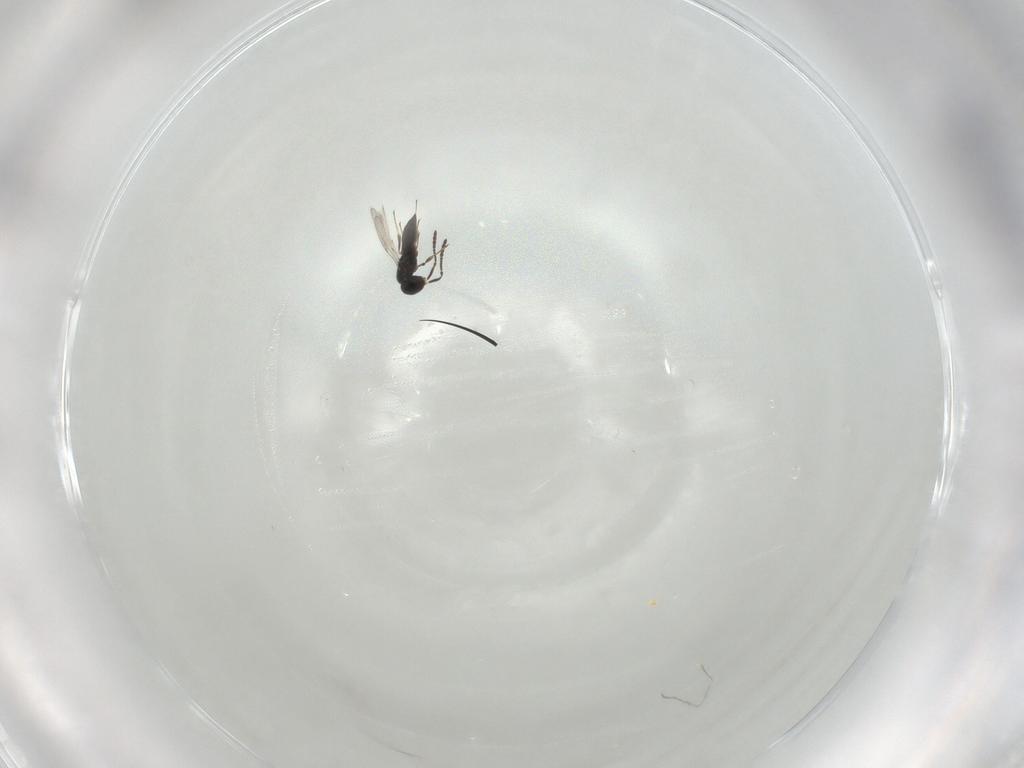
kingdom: Animalia
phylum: Arthropoda
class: Insecta
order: Hymenoptera
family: Scelionidae
